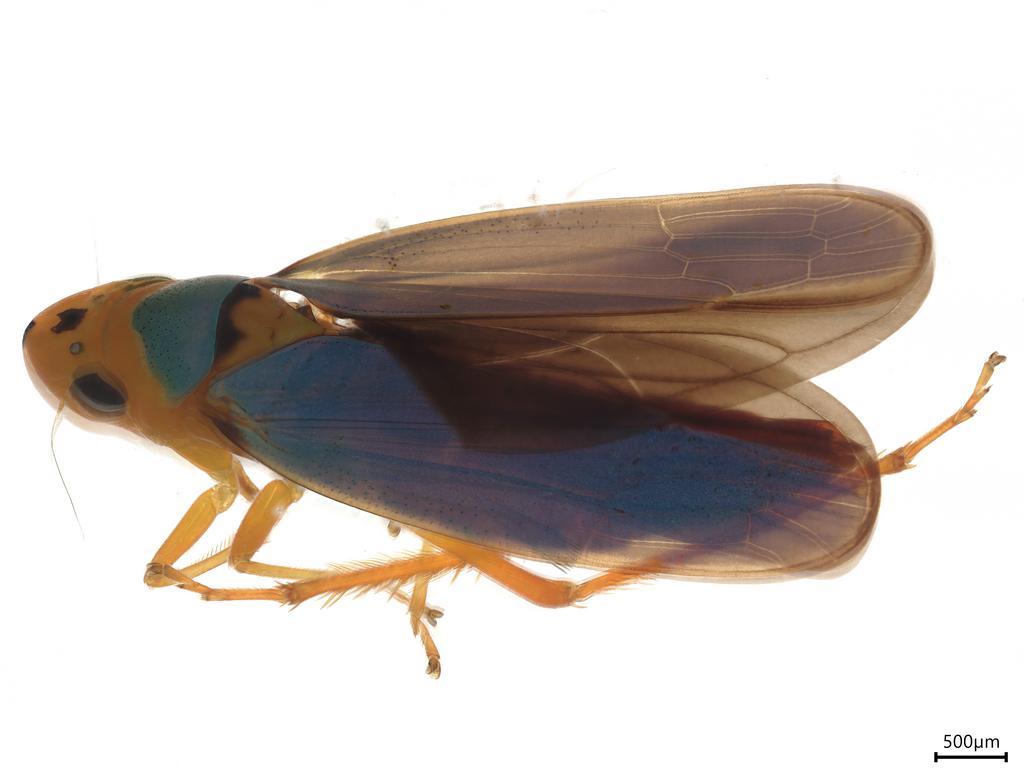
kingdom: Animalia
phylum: Arthropoda
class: Insecta
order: Hymenoptera
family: Scelionidae
